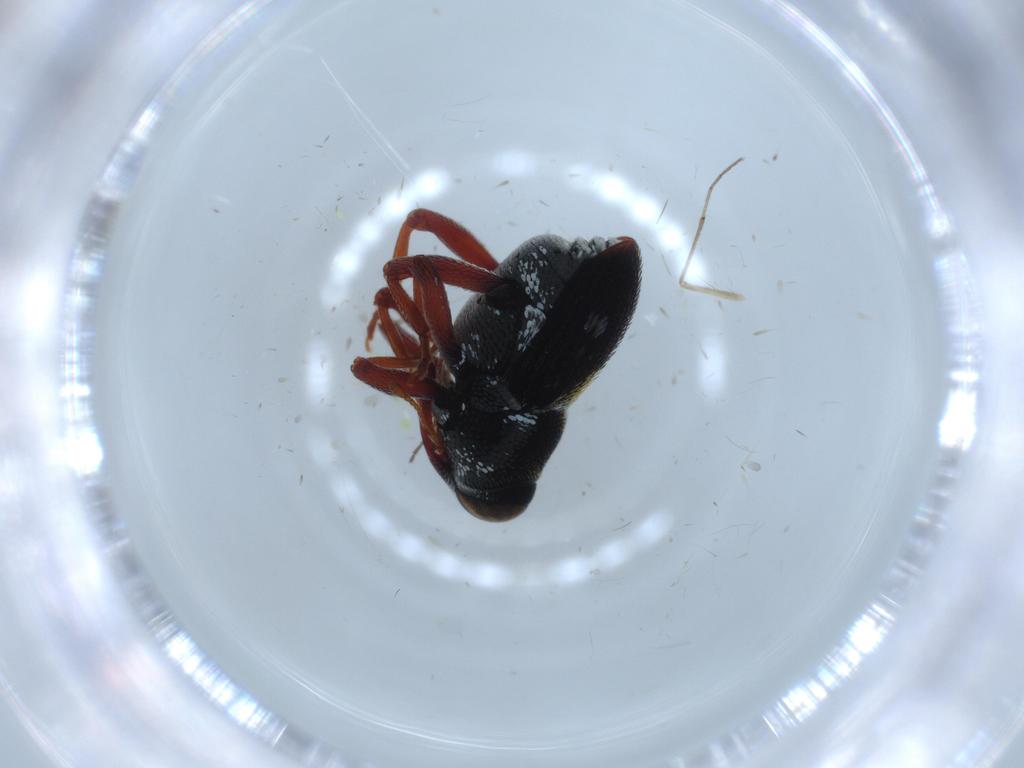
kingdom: Animalia
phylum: Arthropoda
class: Insecta
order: Coleoptera
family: Curculionidae
